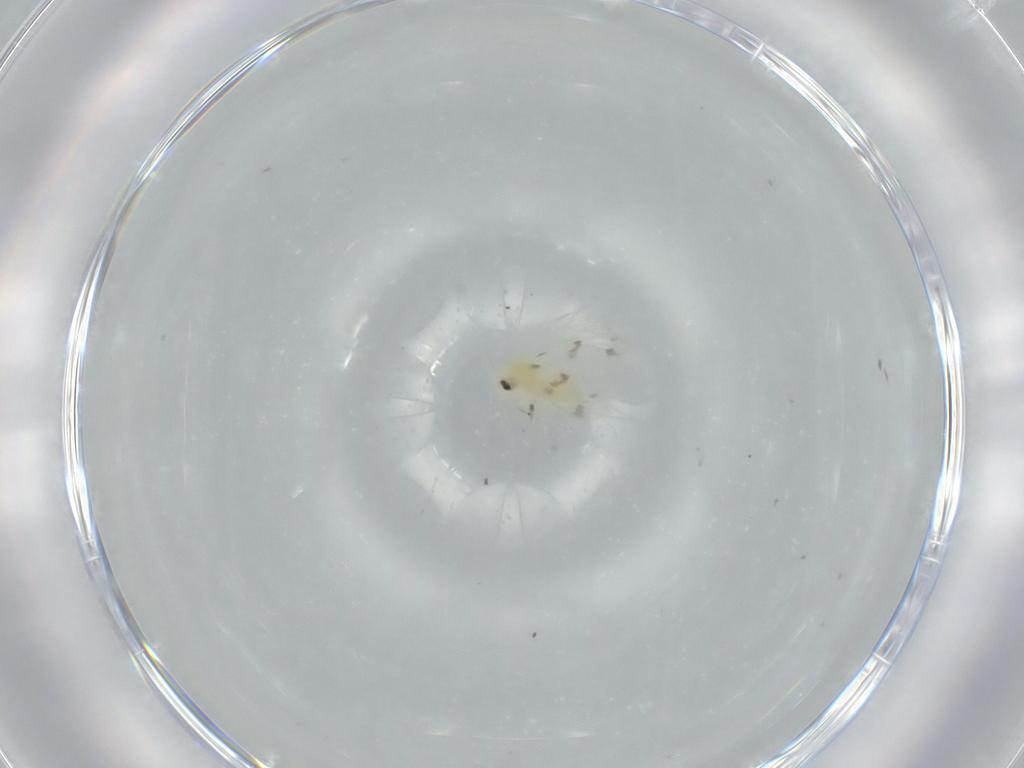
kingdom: Animalia
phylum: Arthropoda
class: Insecta
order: Hemiptera
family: Aleyrodidae
